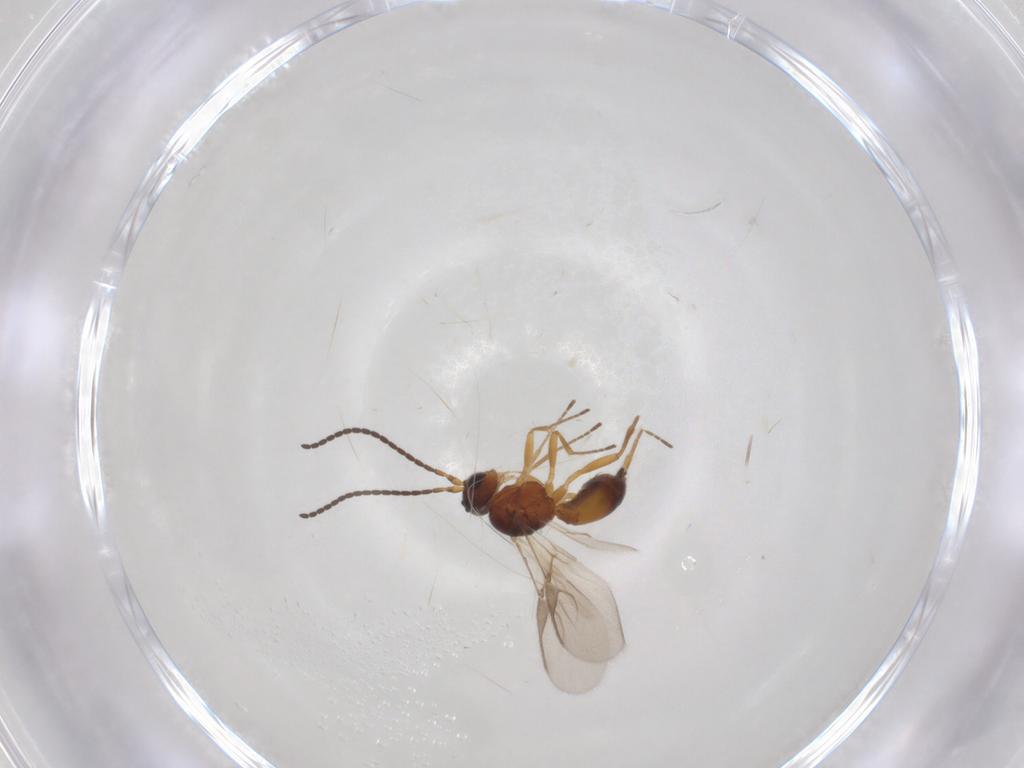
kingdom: Animalia
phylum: Arthropoda
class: Insecta
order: Hymenoptera
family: Braconidae
